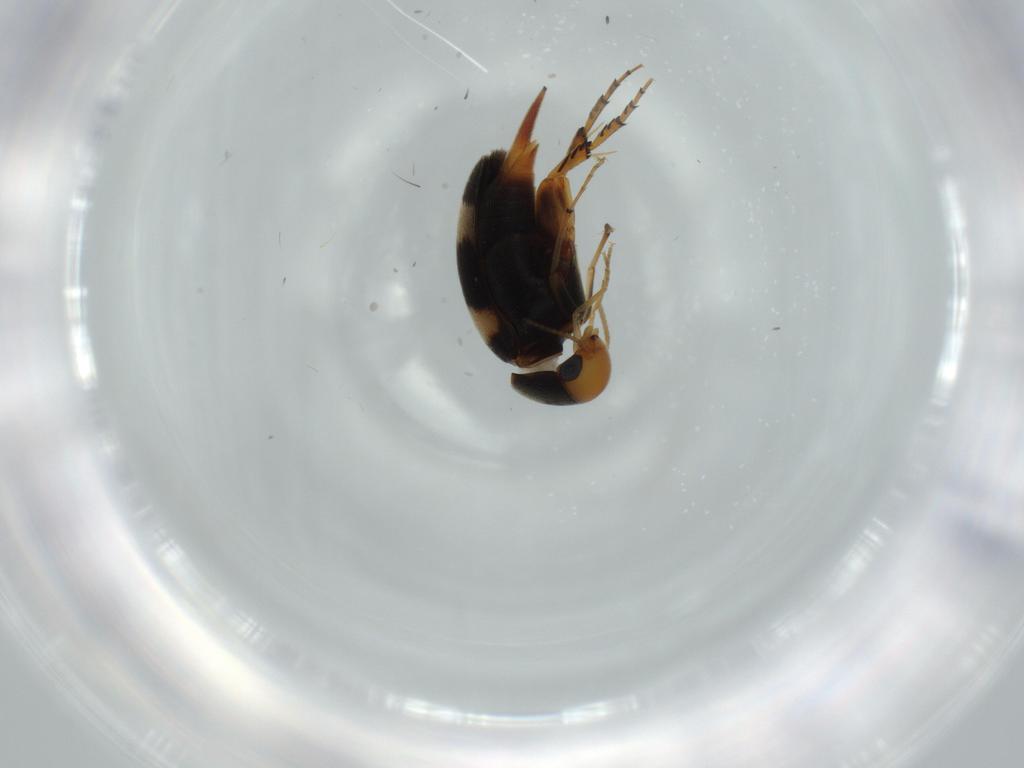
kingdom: Animalia
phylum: Arthropoda
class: Insecta
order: Coleoptera
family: Mordellidae
